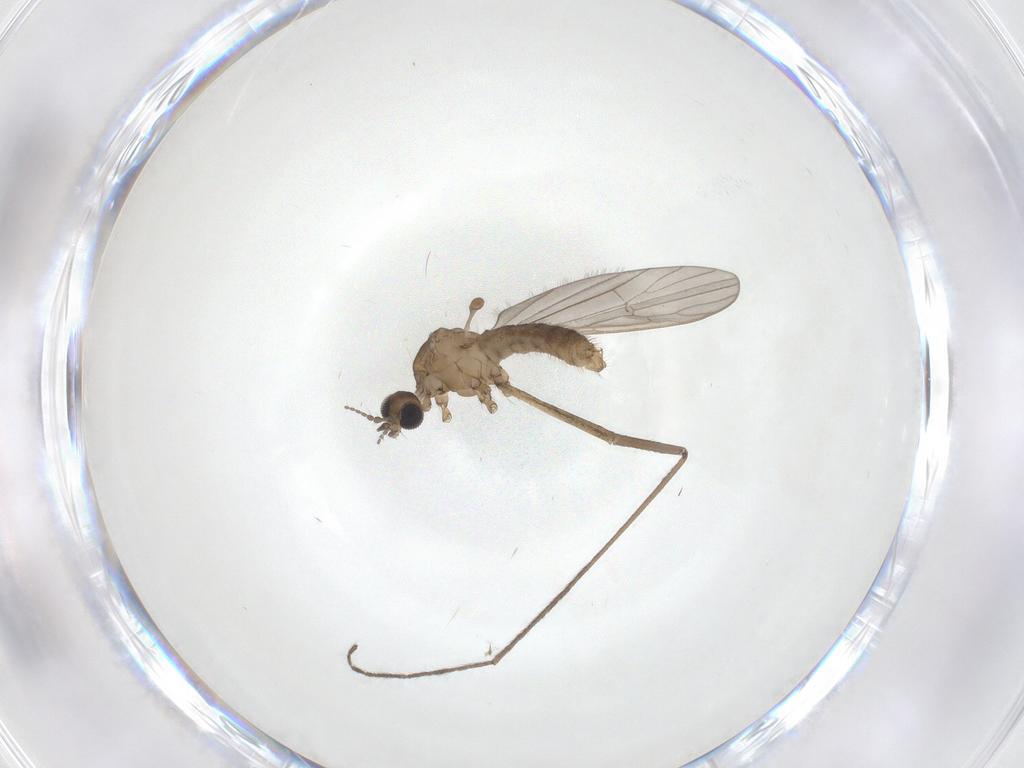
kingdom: Animalia
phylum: Arthropoda
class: Insecta
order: Diptera
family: Limoniidae
